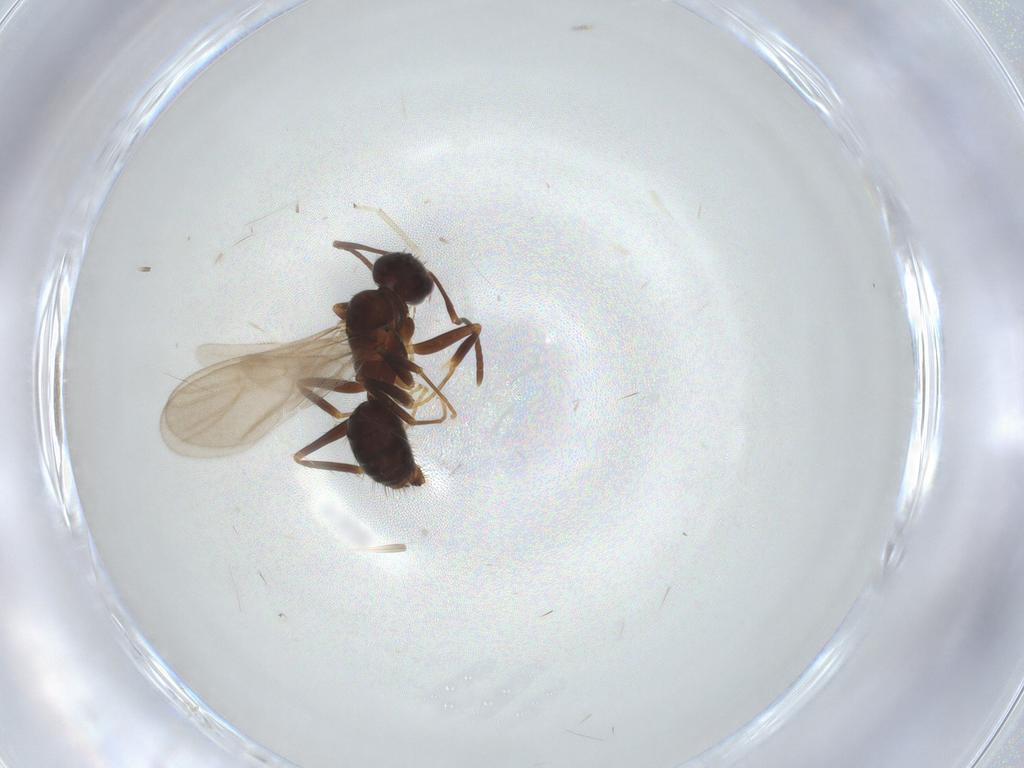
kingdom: Animalia
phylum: Arthropoda
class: Insecta
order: Hymenoptera
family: Formicidae
